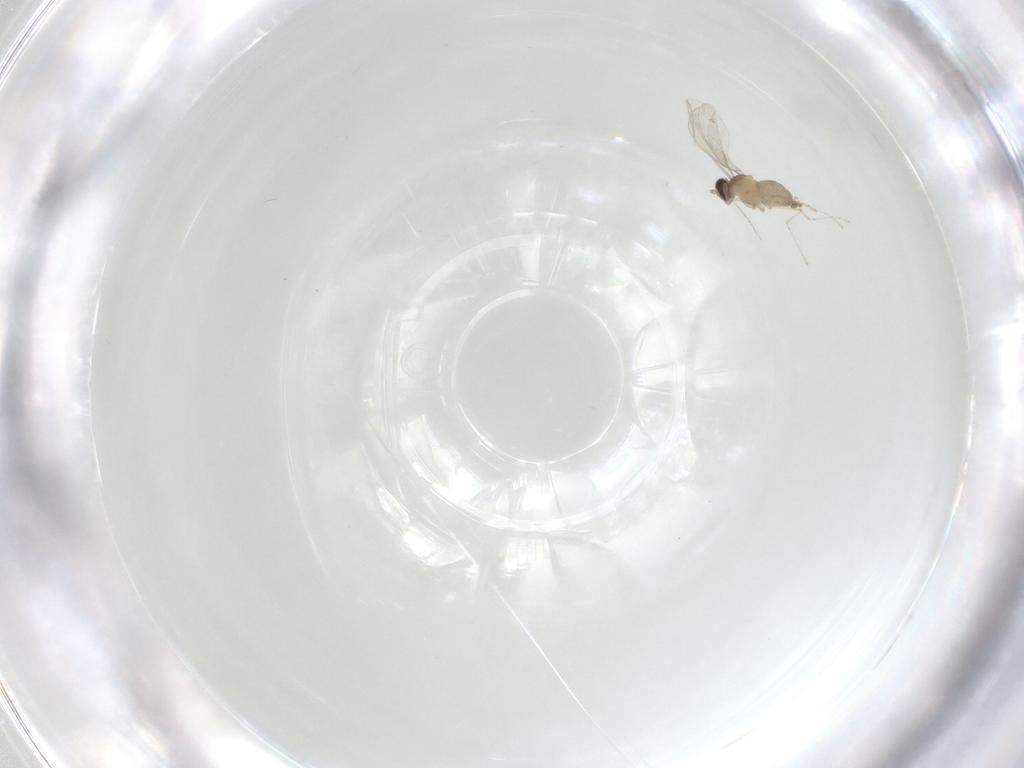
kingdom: Animalia
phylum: Arthropoda
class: Insecta
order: Diptera
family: Cecidomyiidae
